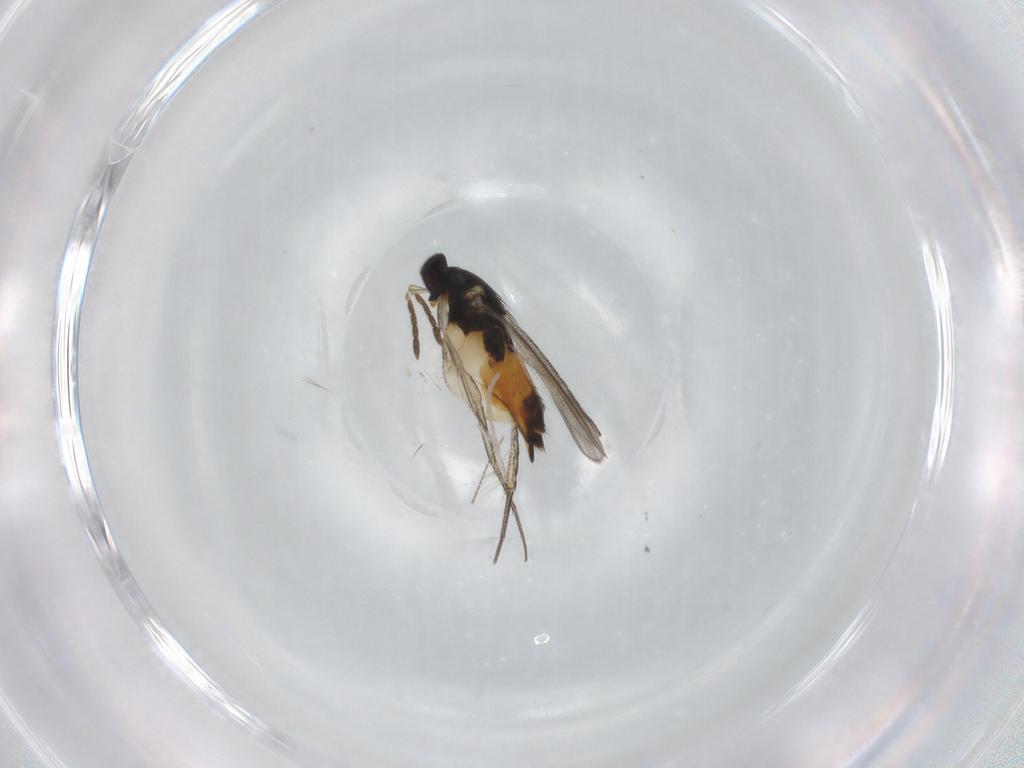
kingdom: Animalia
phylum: Arthropoda
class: Insecta
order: Hymenoptera
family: Eulophidae
